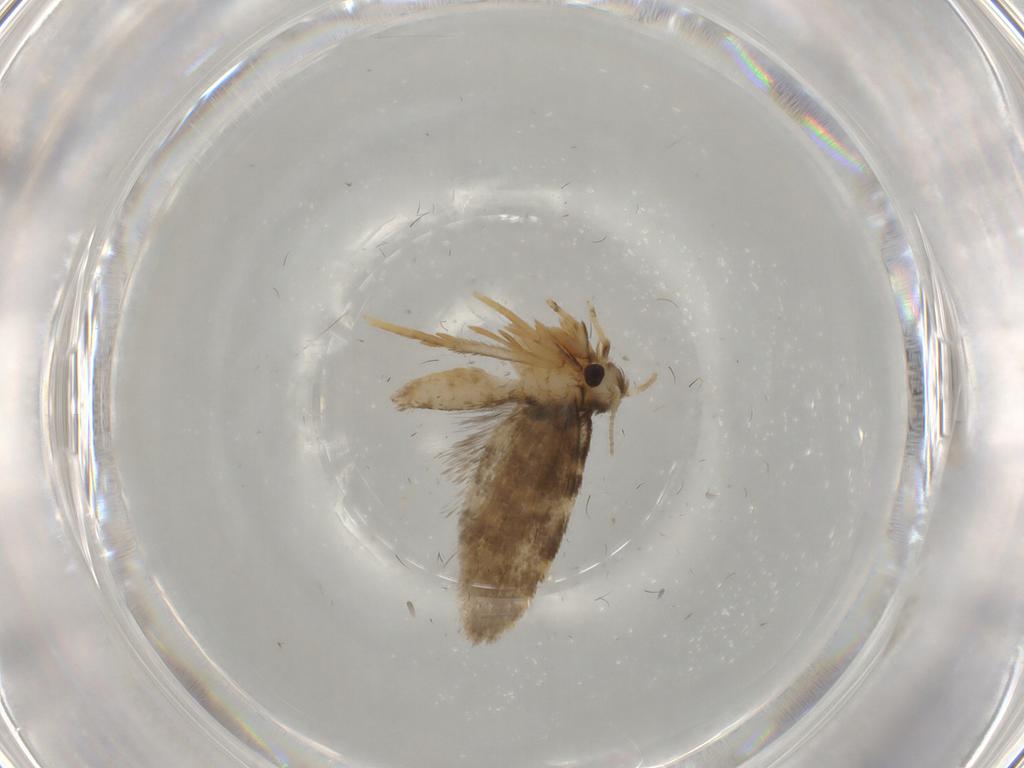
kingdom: Animalia
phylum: Arthropoda
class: Insecta
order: Lepidoptera
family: Psychidae
